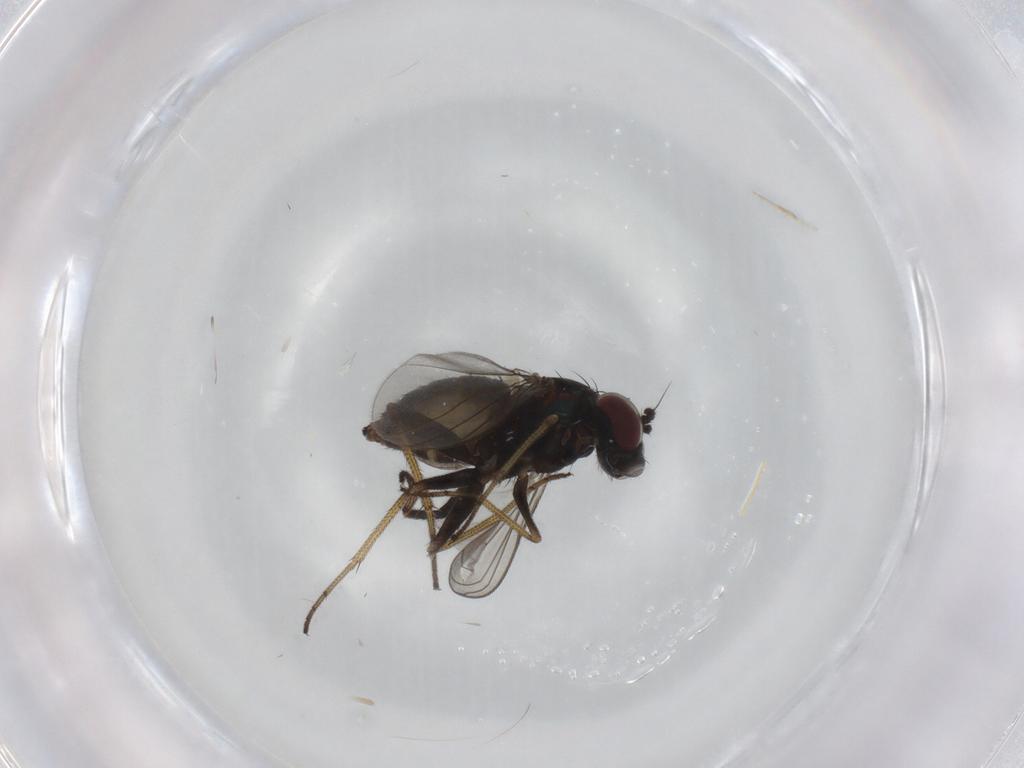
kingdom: Animalia
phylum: Arthropoda
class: Insecta
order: Diptera
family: Dolichopodidae
